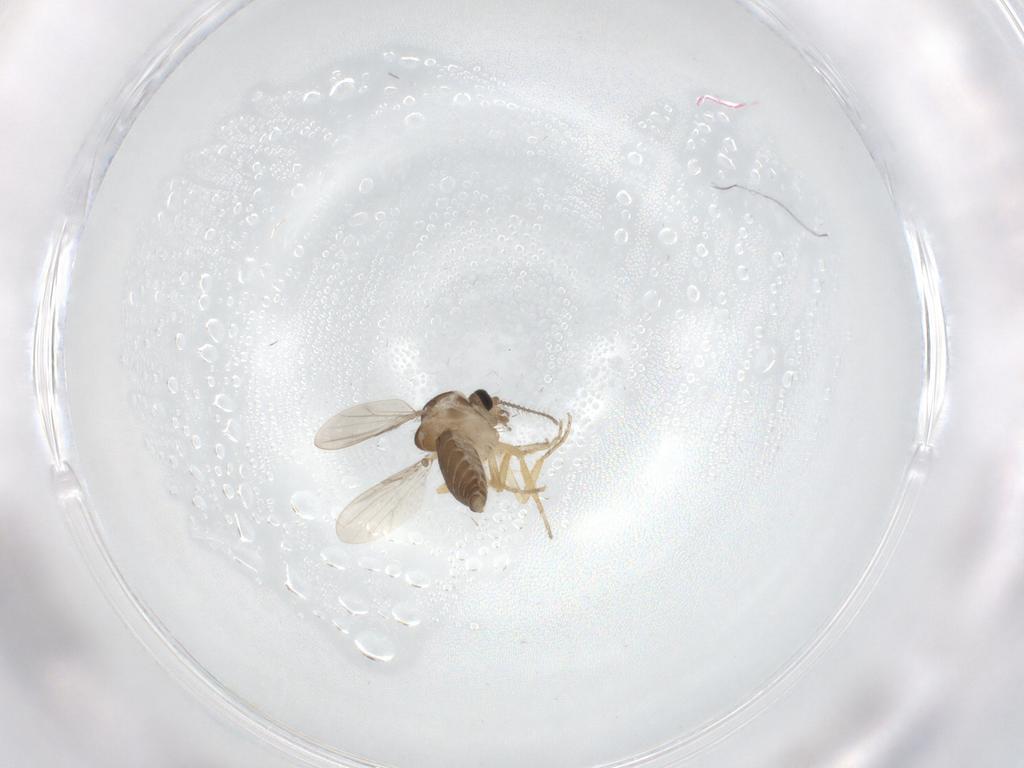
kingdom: Animalia
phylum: Arthropoda
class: Insecta
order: Diptera
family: Ceratopogonidae
